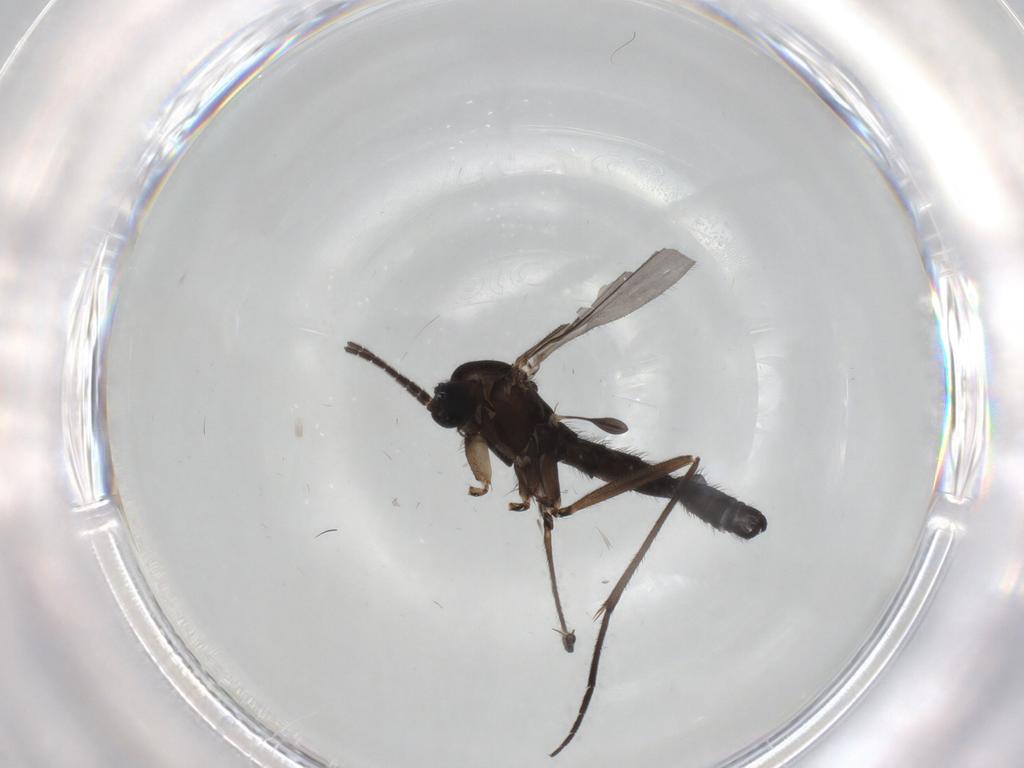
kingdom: Animalia
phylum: Arthropoda
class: Insecta
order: Diptera
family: Sciaridae
